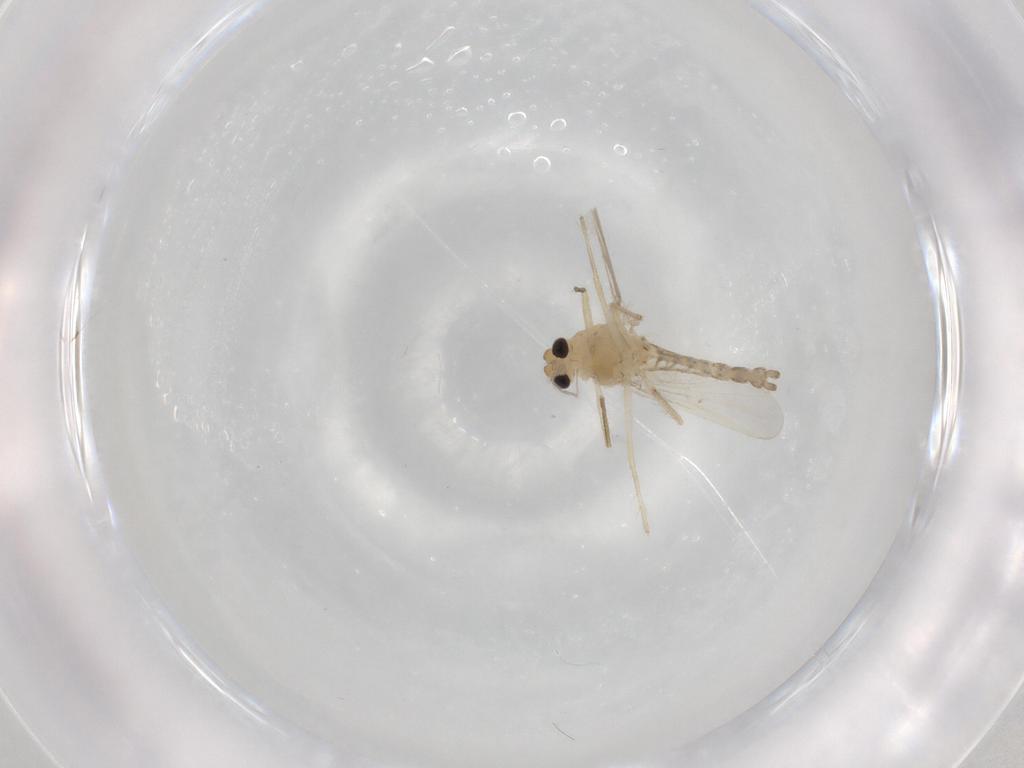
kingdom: Animalia
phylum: Arthropoda
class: Insecta
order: Diptera
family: Chironomidae
